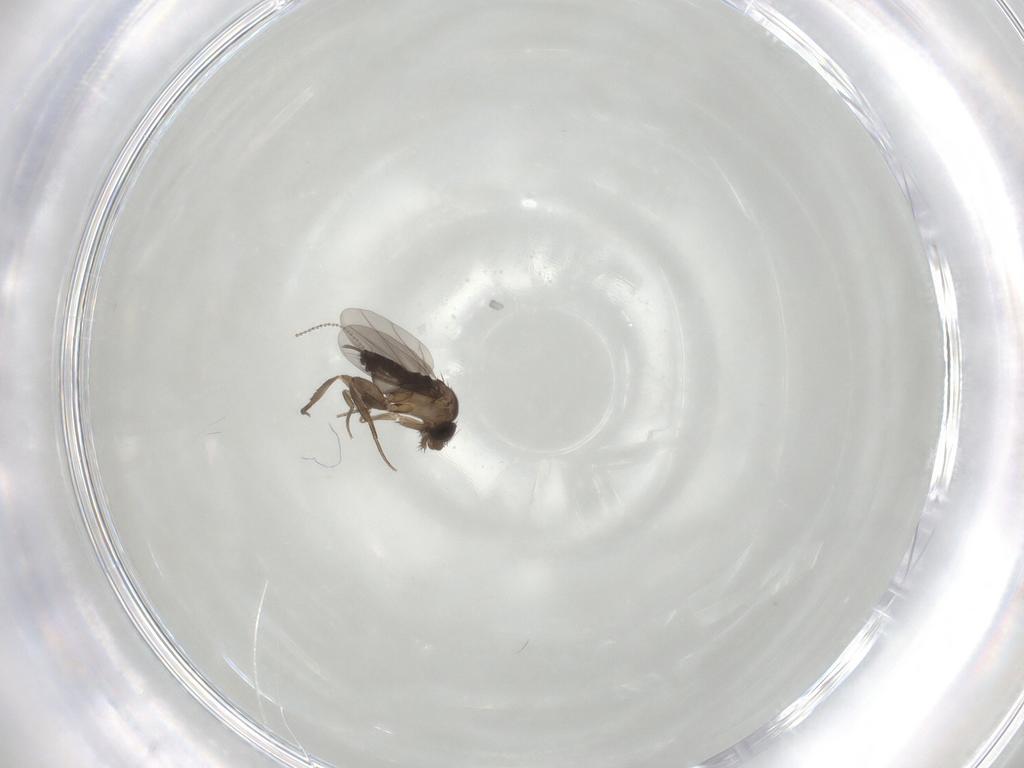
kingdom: Animalia
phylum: Arthropoda
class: Insecta
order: Diptera
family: Phoridae
